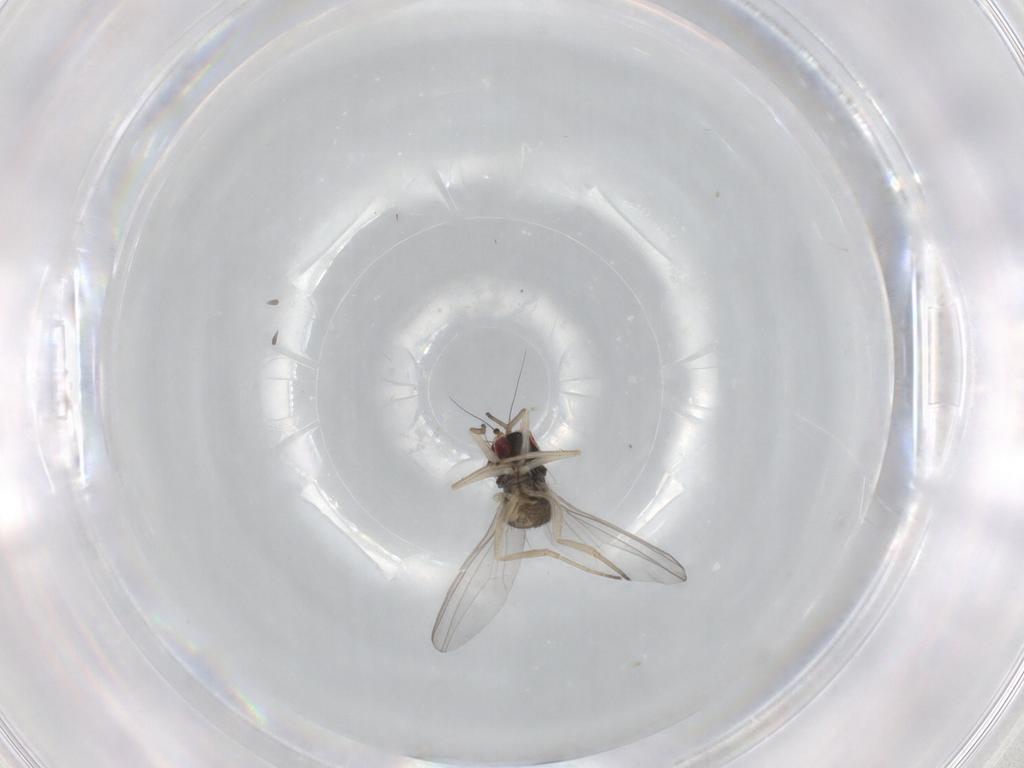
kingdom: Animalia
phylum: Arthropoda
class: Insecta
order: Diptera
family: Dolichopodidae
